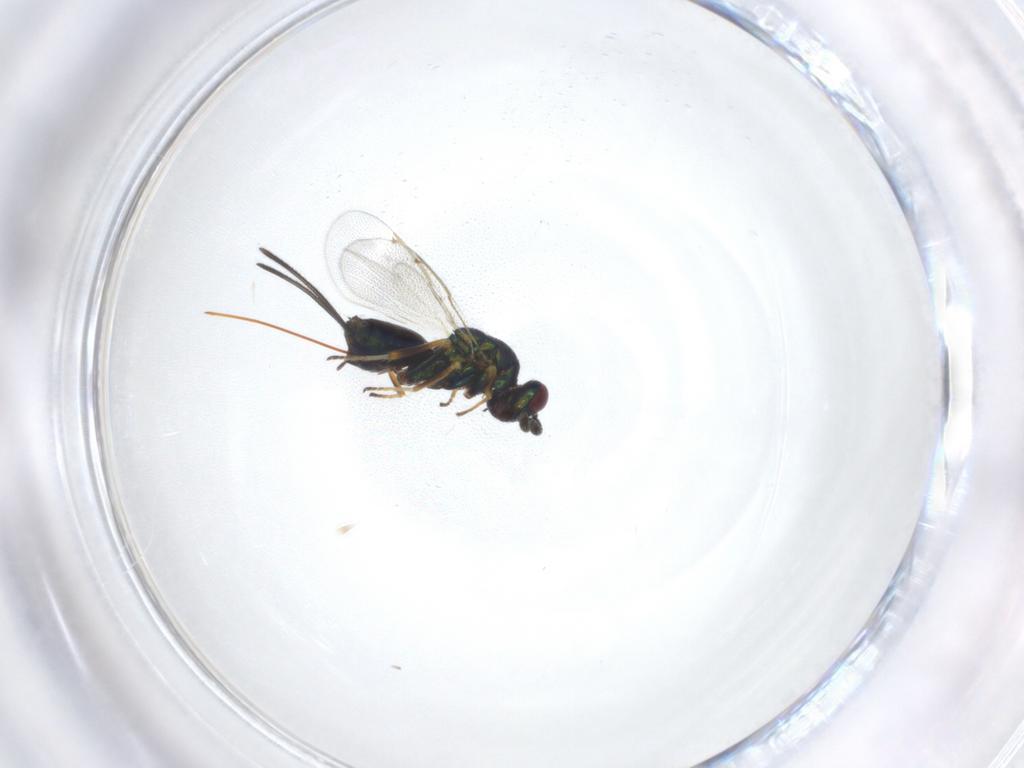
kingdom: Animalia
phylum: Arthropoda
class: Insecta
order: Hymenoptera
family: Torymidae
